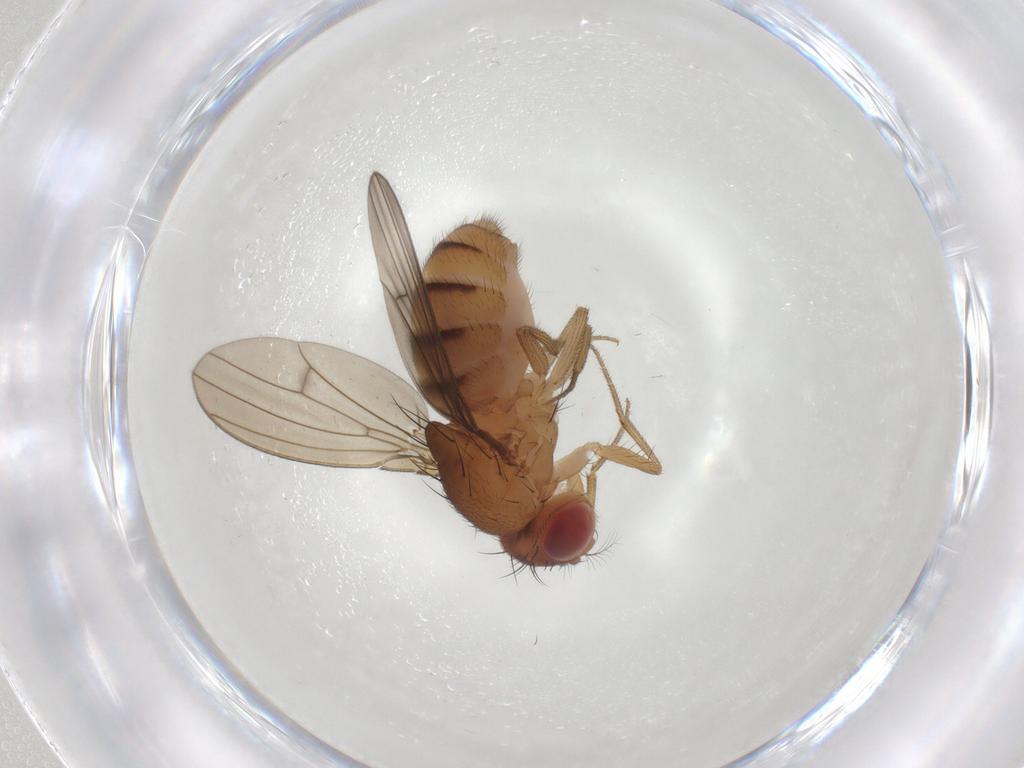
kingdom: Animalia
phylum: Arthropoda
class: Insecta
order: Diptera
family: Drosophilidae
